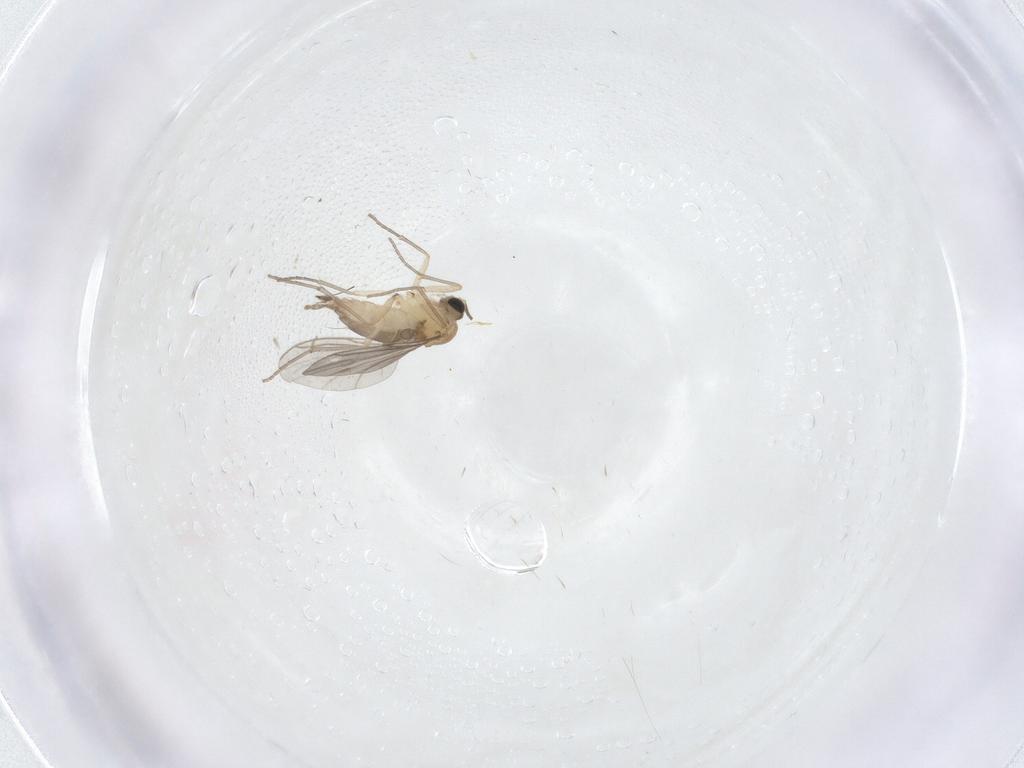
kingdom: Animalia
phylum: Arthropoda
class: Insecta
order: Diptera
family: Sciaridae
